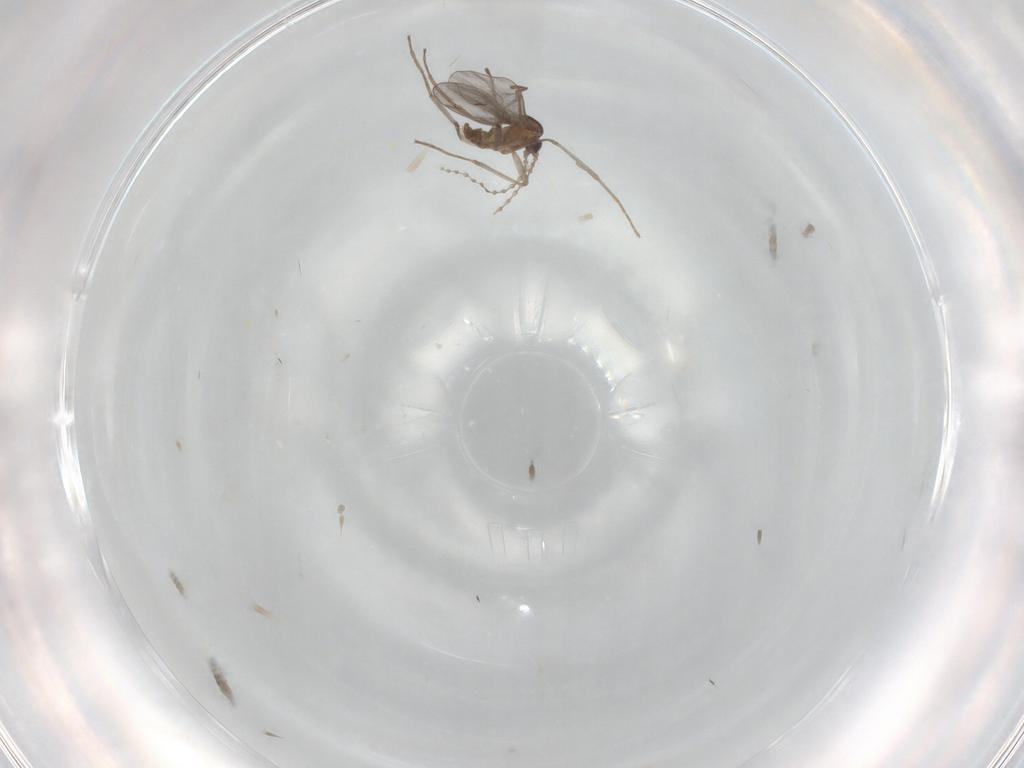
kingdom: Animalia
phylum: Arthropoda
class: Insecta
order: Diptera
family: Cecidomyiidae
